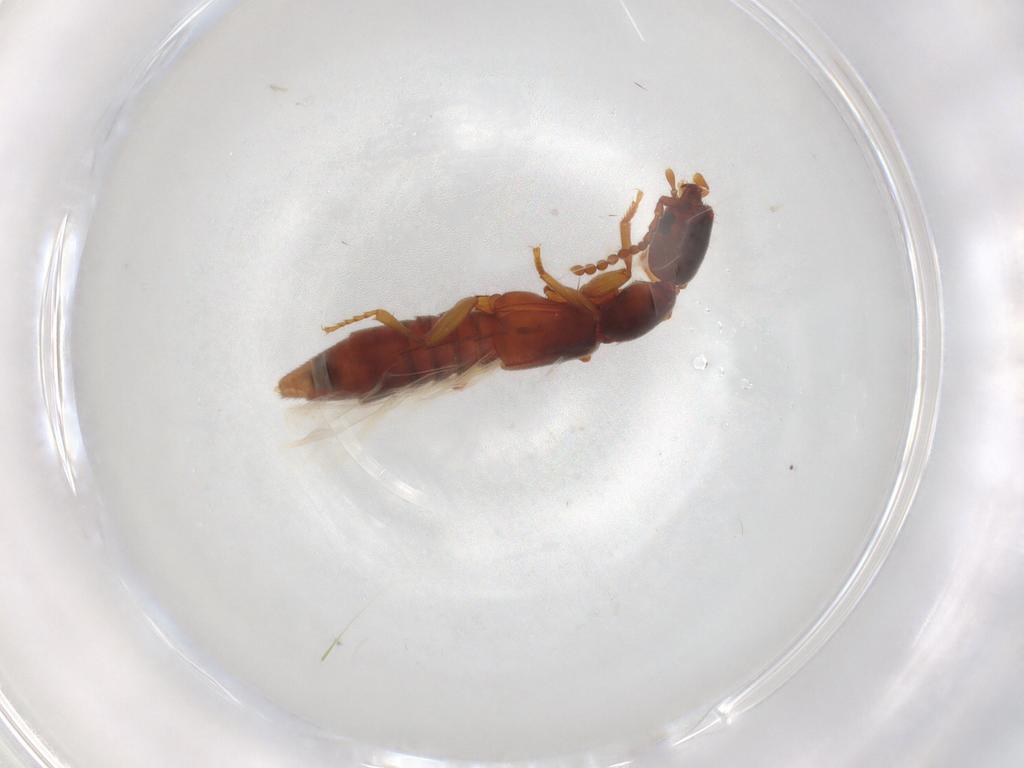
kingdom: Animalia
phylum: Arthropoda
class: Insecta
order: Coleoptera
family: Staphylinidae
